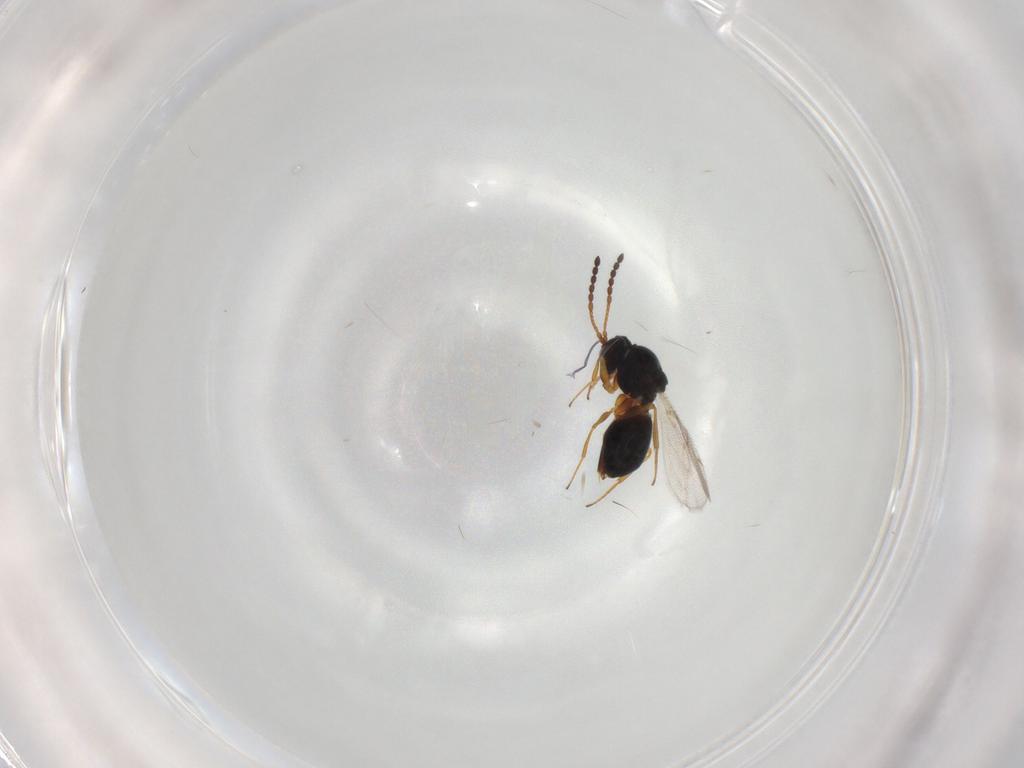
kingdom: Animalia
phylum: Arthropoda
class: Insecta
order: Hymenoptera
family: Figitidae
